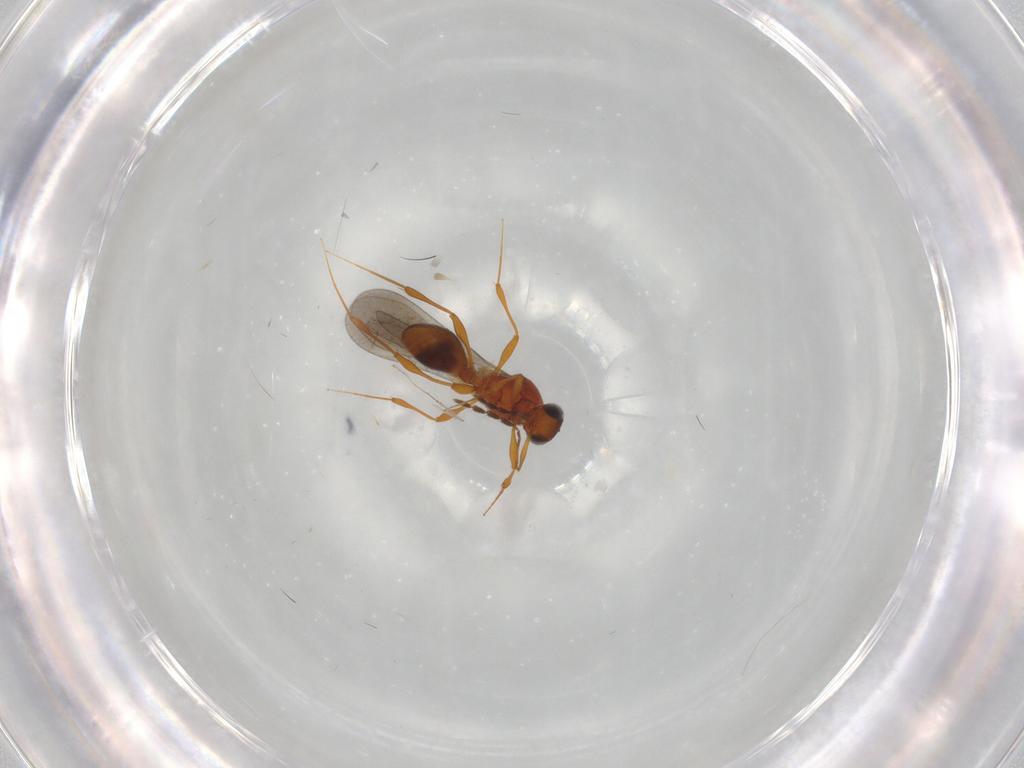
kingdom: Animalia
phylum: Arthropoda
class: Insecta
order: Hymenoptera
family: Platygastridae
